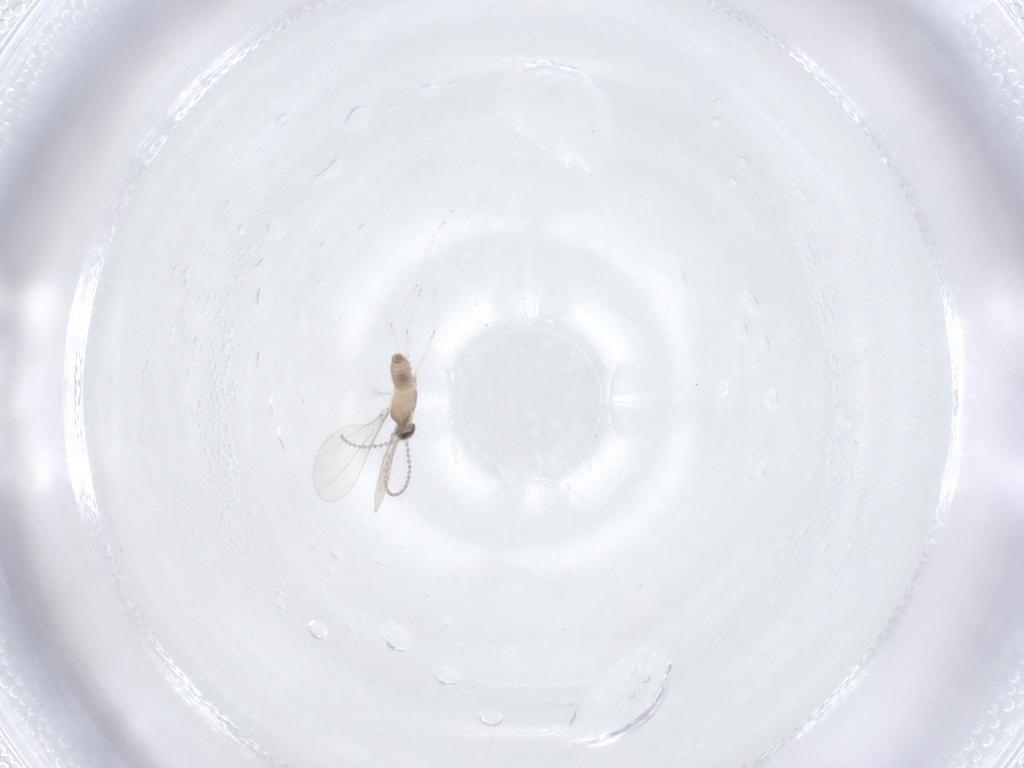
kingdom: Animalia
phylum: Arthropoda
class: Insecta
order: Diptera
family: Cecidomyiidae
